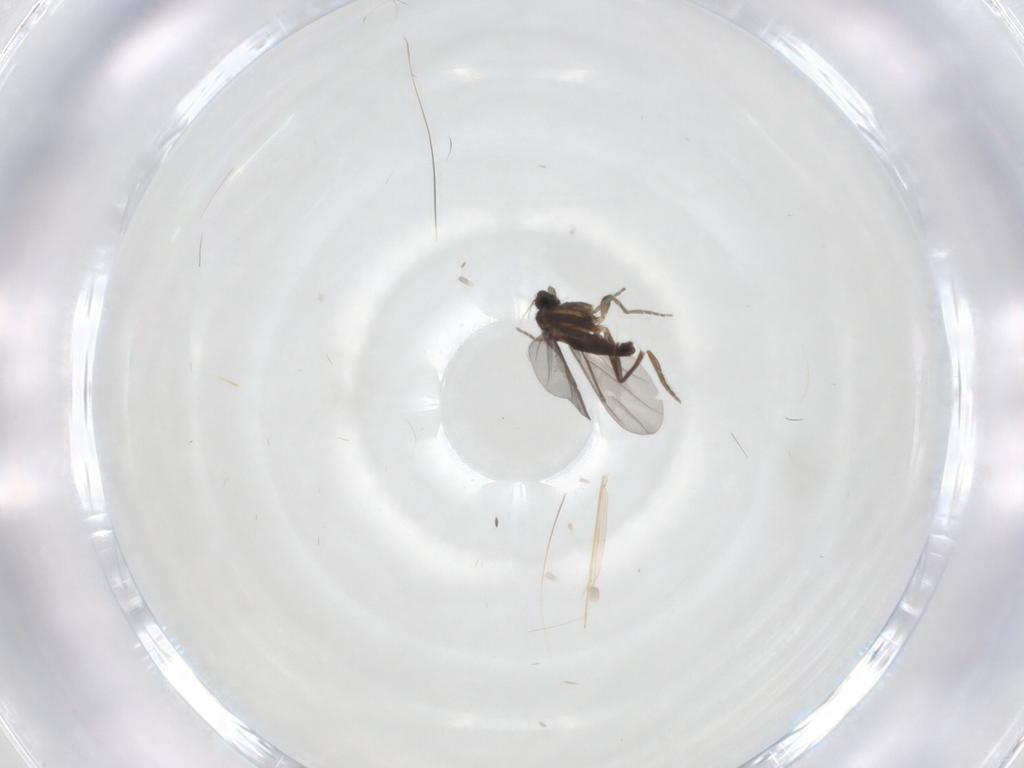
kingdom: Animalia
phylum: Arthropoda
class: Insecta
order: Diptera
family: Phoridae
